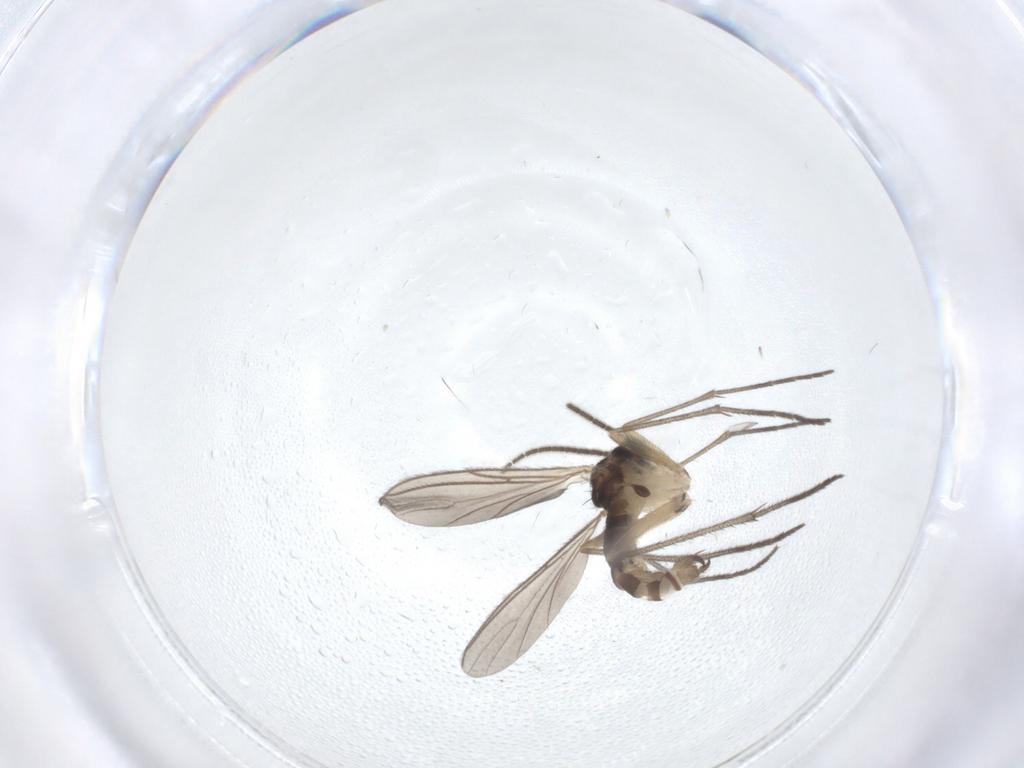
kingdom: Animalia
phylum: Arthropoda
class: Insecta
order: Diptera
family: Sciaridae
